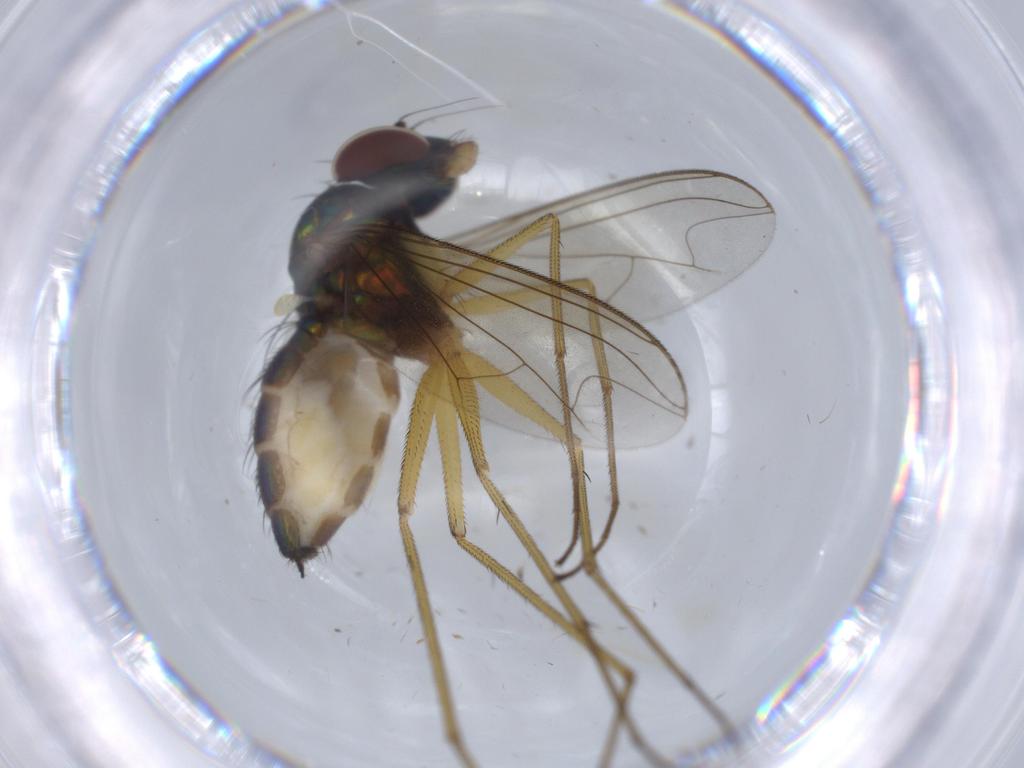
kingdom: Animalia
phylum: Arthropoda
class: Insecta
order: Diptera
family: Dolichopodidae
